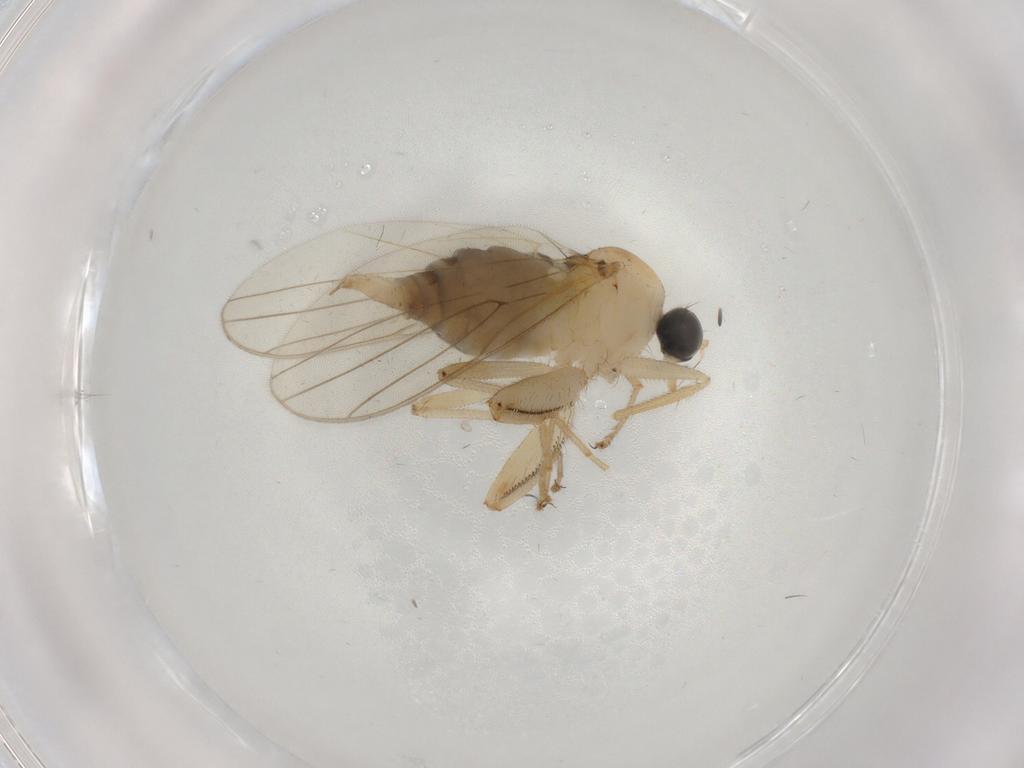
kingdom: Animalia
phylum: Arthropoda
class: Insecta
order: Diptera
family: Hybotidae
